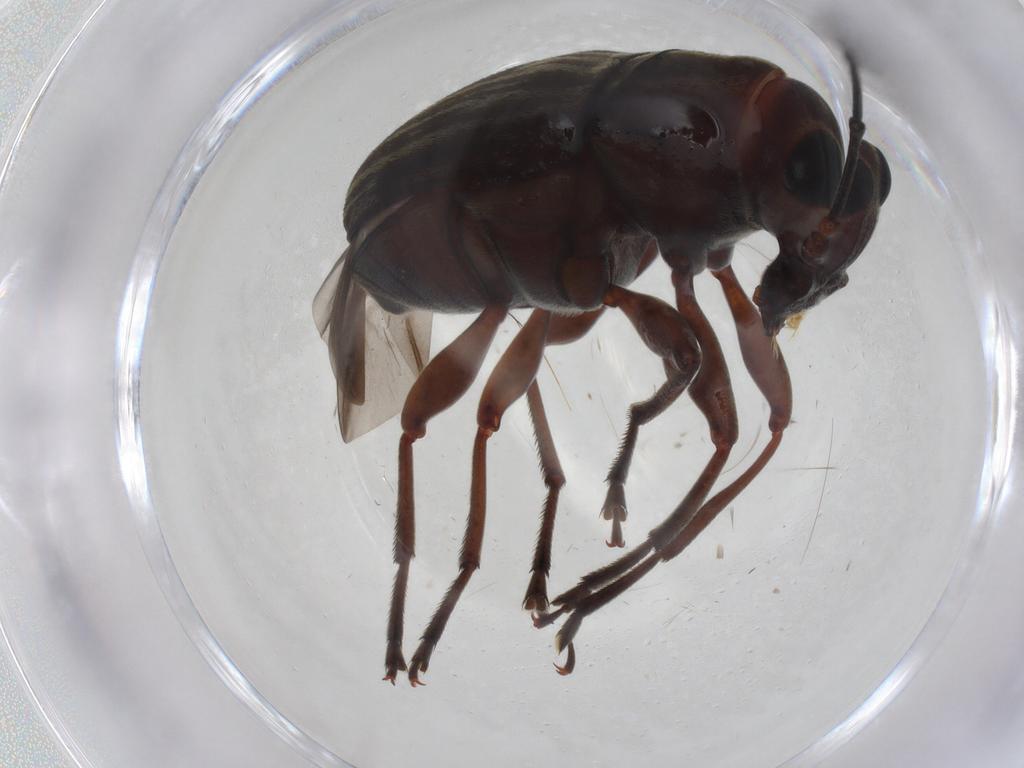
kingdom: Animalia
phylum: Arthropoda
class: Insecta
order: Coleoptera
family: Anthribidae
